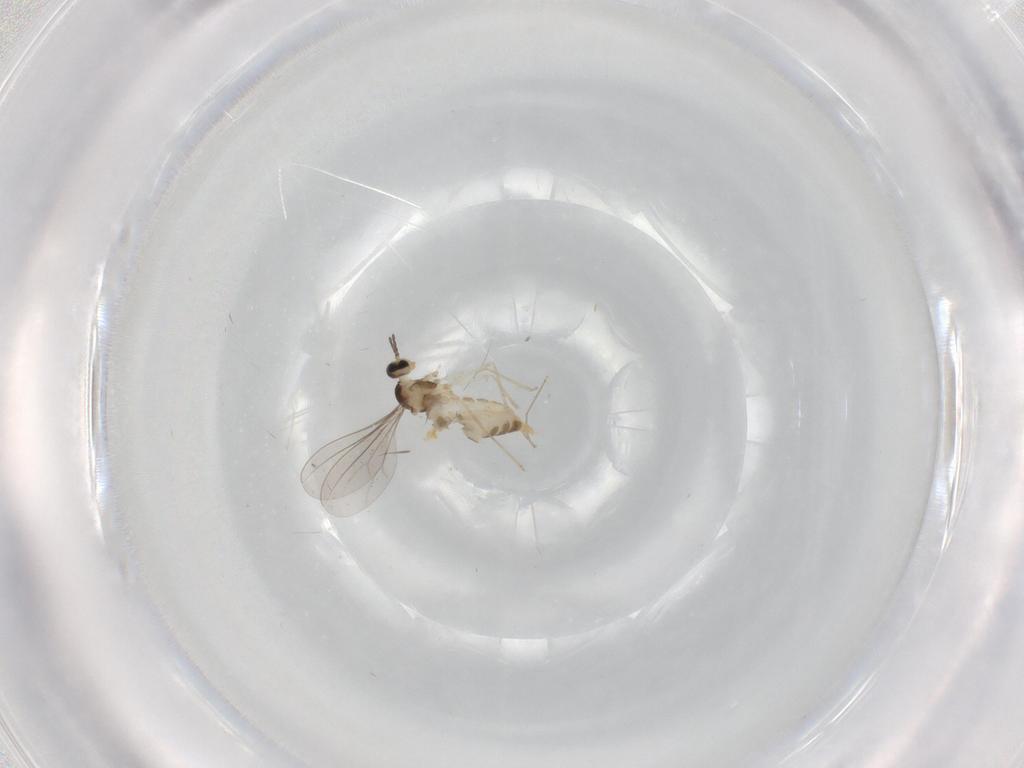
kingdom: Animalia
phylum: Arthropoda
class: Insecta
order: Diptera
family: Cecidomyiidae
